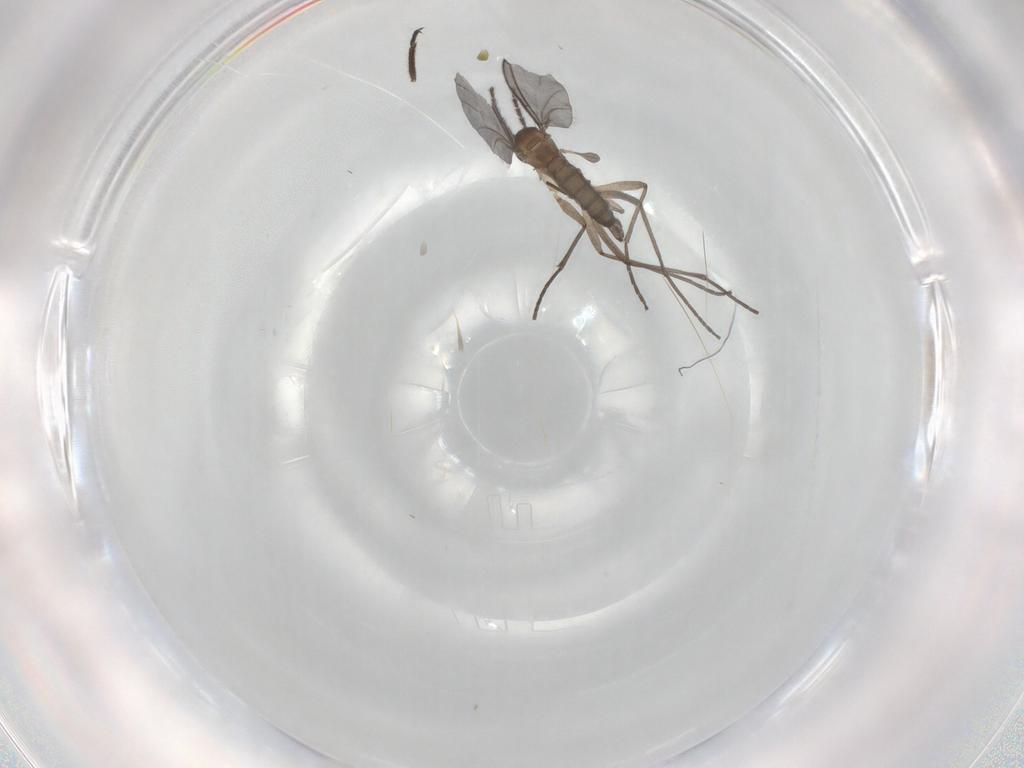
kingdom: Animalia
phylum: Arthropoda
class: Insecta
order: Diptera
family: Sciaridae
